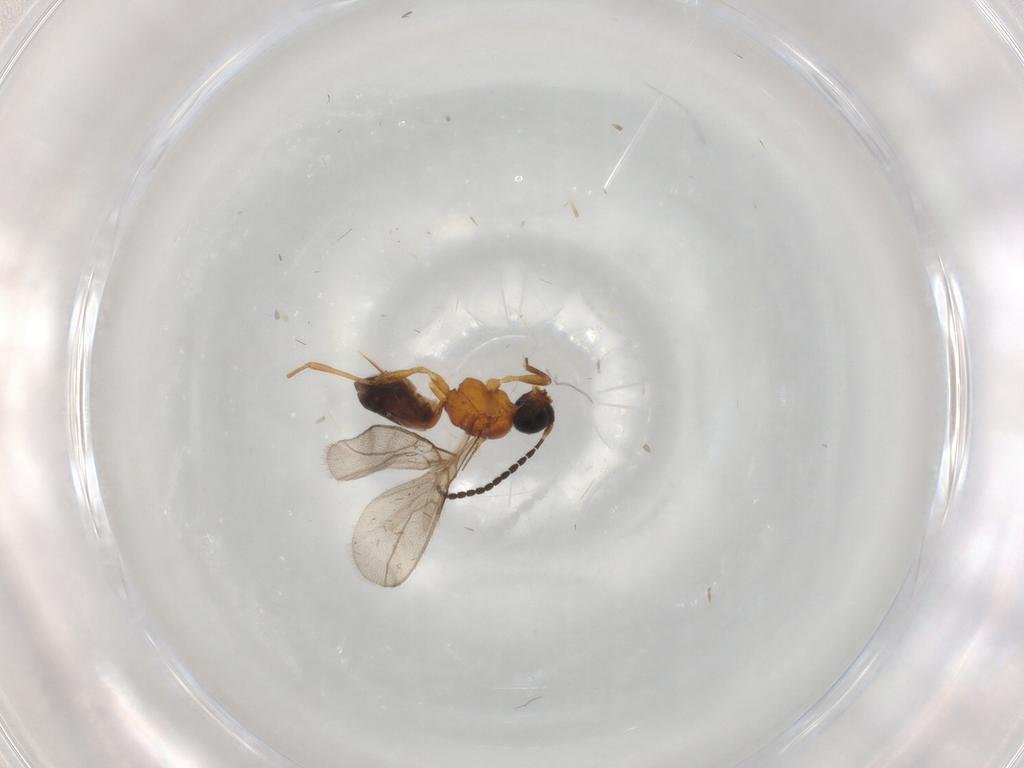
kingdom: Animalia
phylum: Arthropoda
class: Insecta
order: Hymenoptera
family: Braconidae
